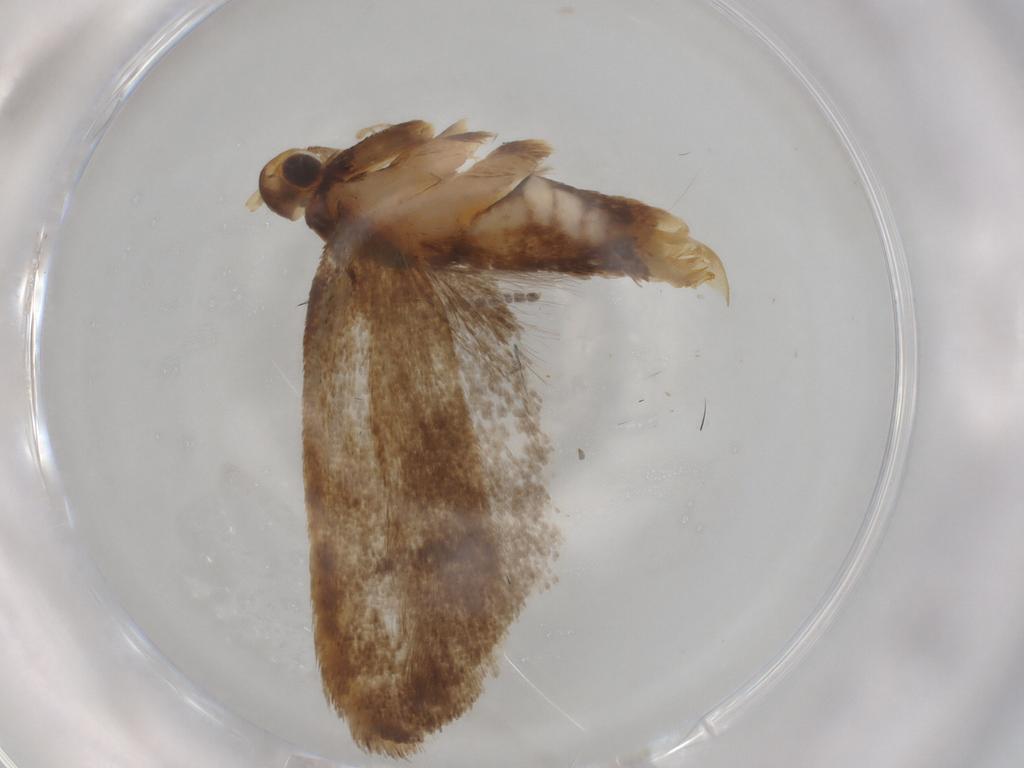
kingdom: Animalia
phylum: Arthropoda
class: Insecta
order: Lepidoptera
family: Lecithoceridae
